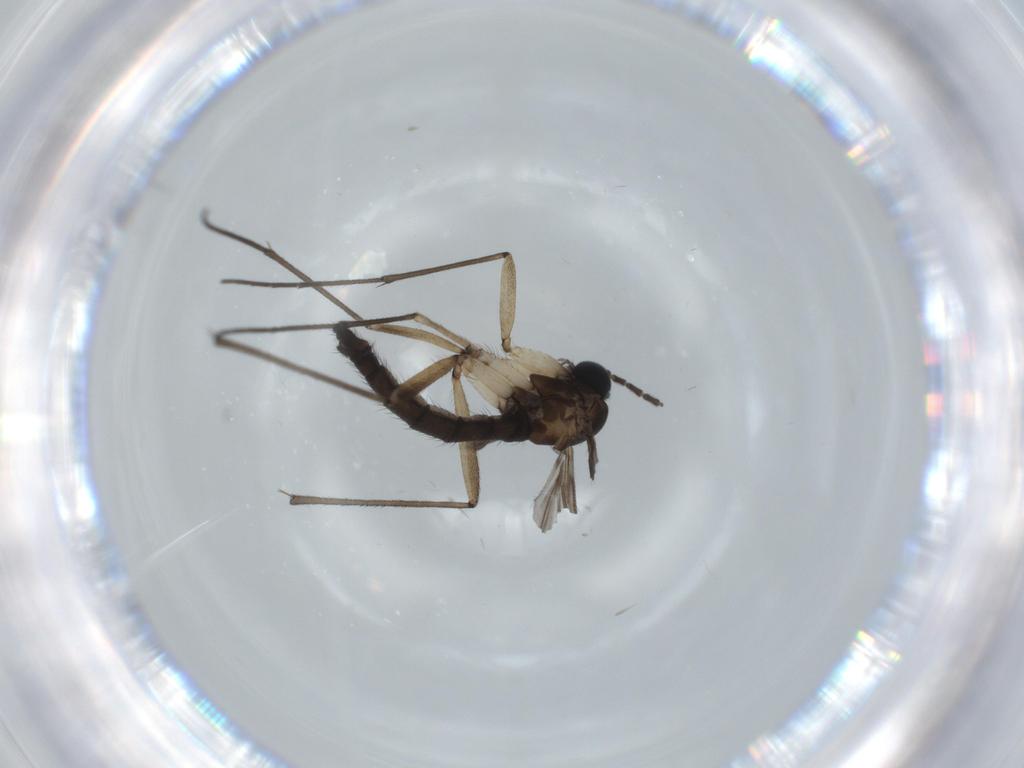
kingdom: Animalia
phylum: Arthropoda
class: Insecta
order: Diptera
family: Sciaridae
